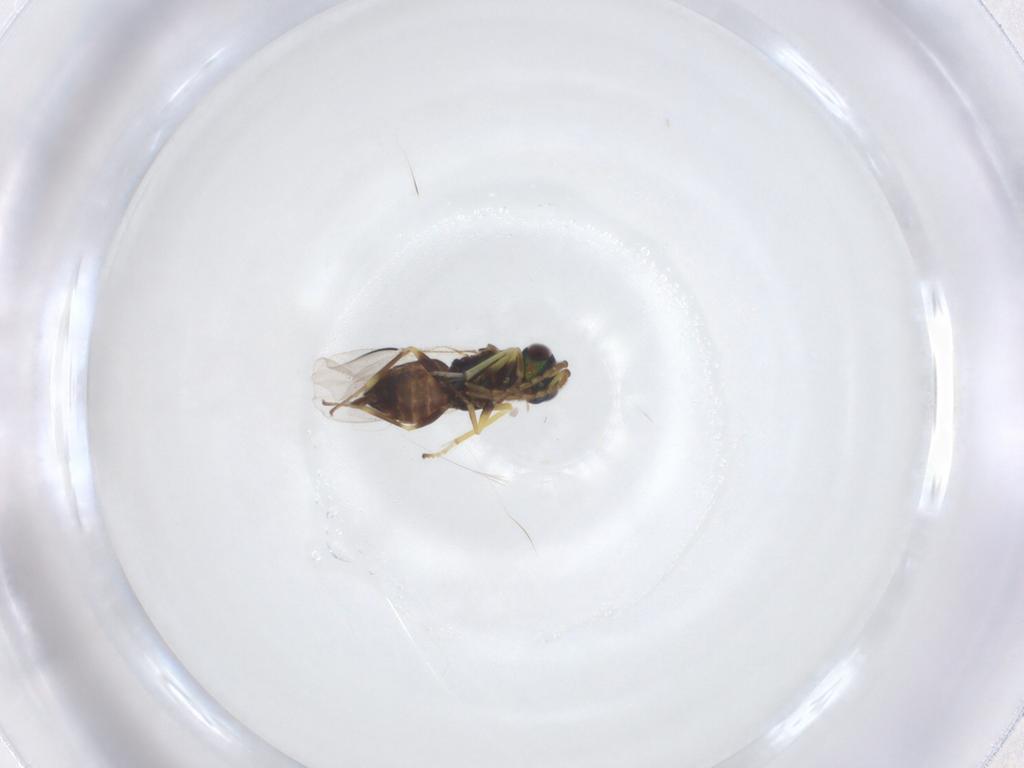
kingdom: Animalia
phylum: Arthropoda
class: Insecta
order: Hymenoptera
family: Encyrtidae
